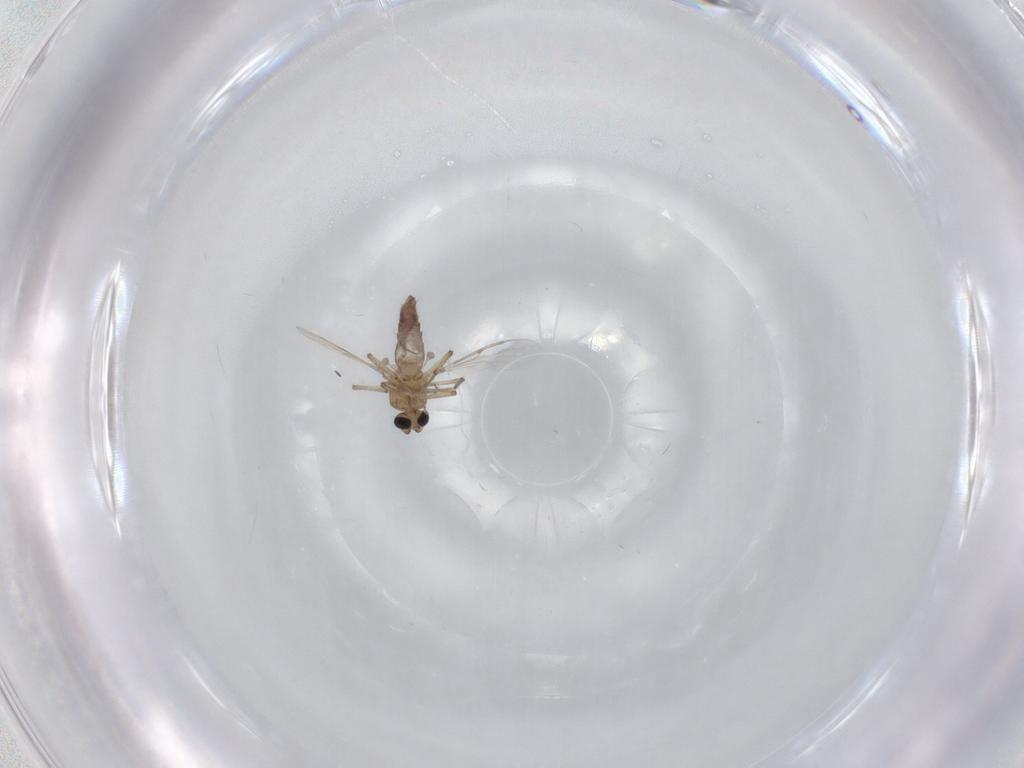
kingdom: Animalia
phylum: Arthropoda
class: Insecta
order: Diptera
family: Ceratopogonidae
